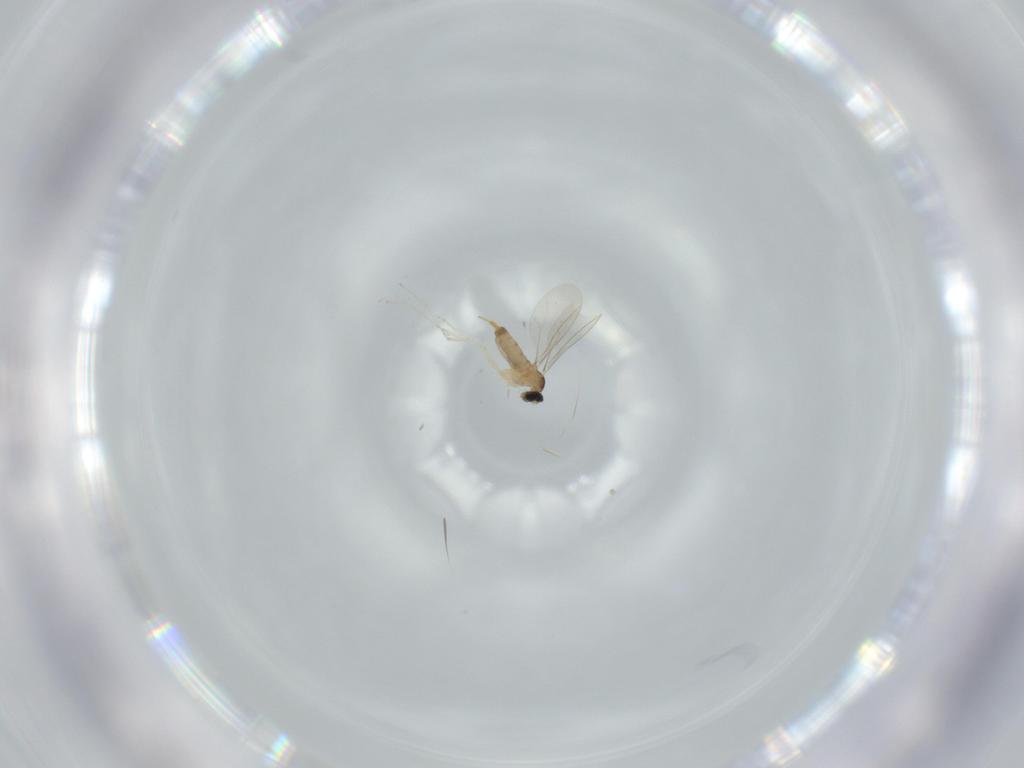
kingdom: Animalia
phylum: Arthropoda
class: Insecta
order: Diptera
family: Cecidomyiidae
